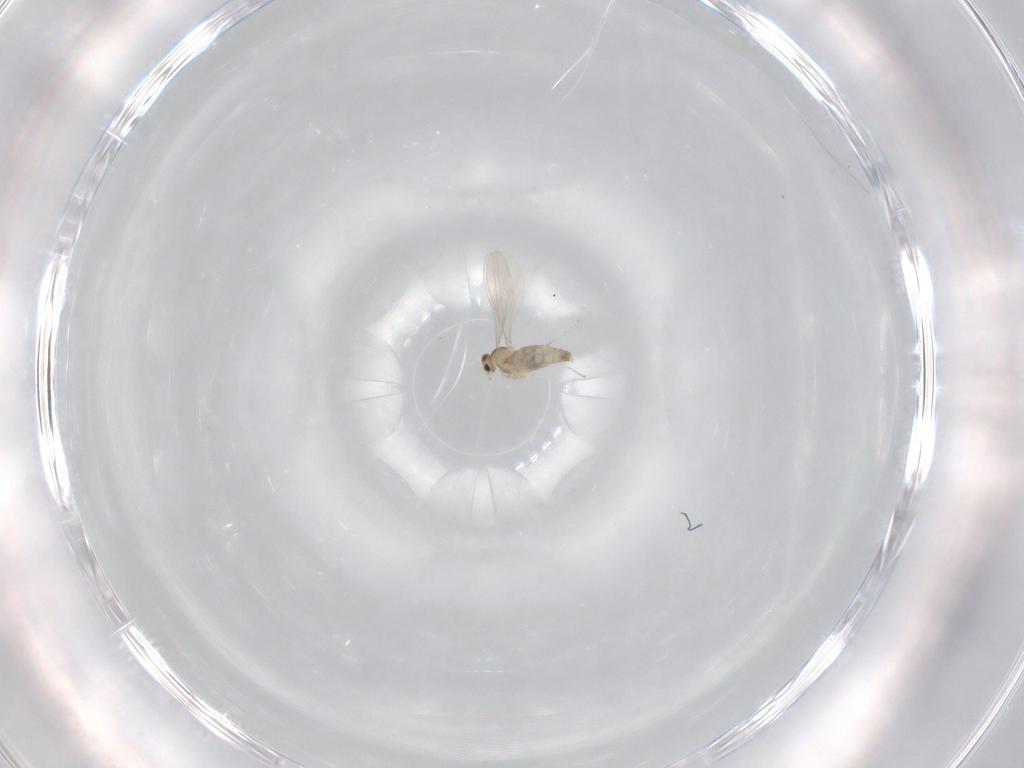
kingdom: Animalia
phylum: Arthropoda
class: Insecta
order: Diptera
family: Cecidomyiidae
